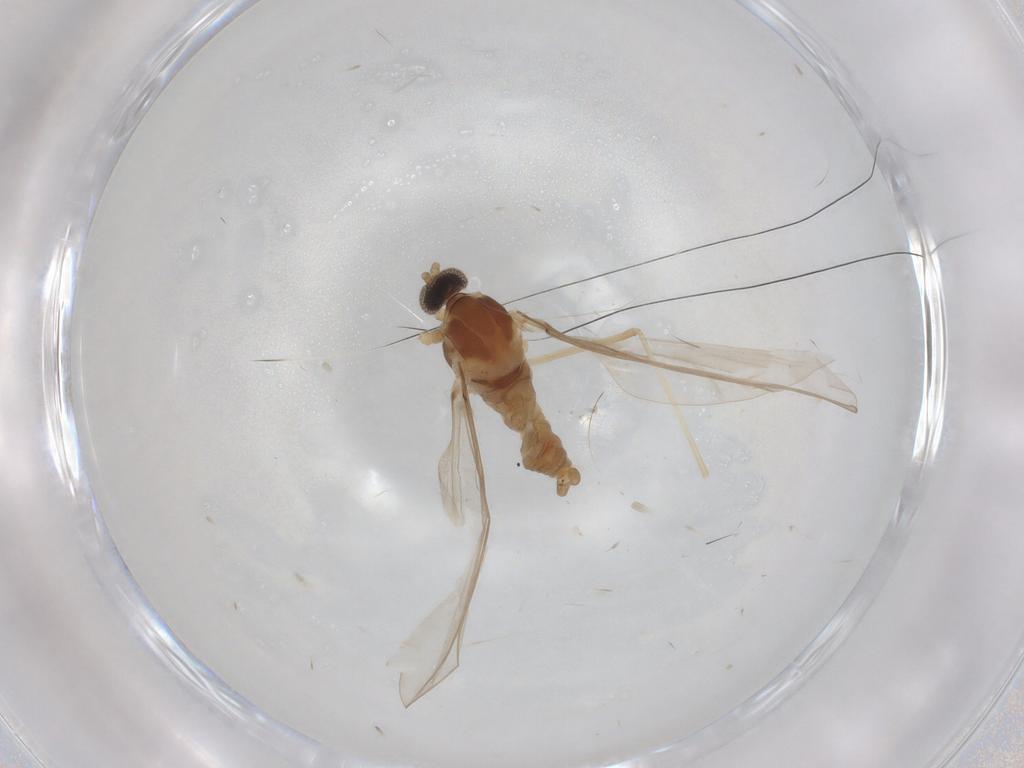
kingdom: Animalia
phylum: Arthropoda
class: Insecta
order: Diptera
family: Cecidomyiidae
